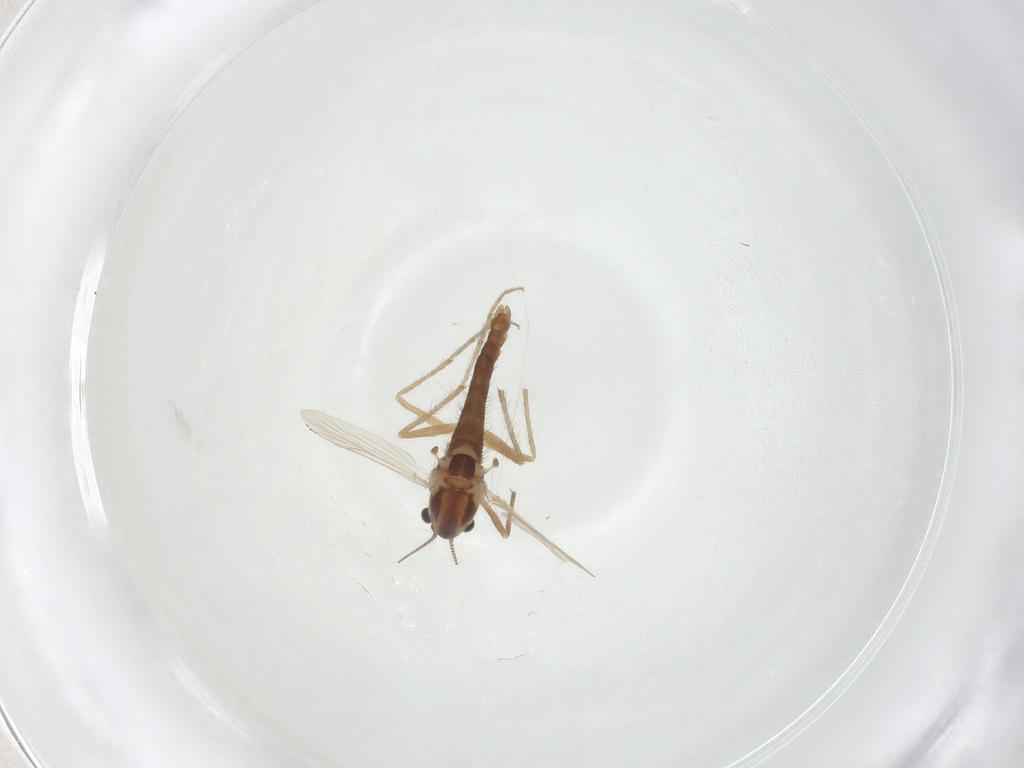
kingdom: Animalia
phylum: Arthropoda
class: Insecta
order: Diptera
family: Chironomidae
